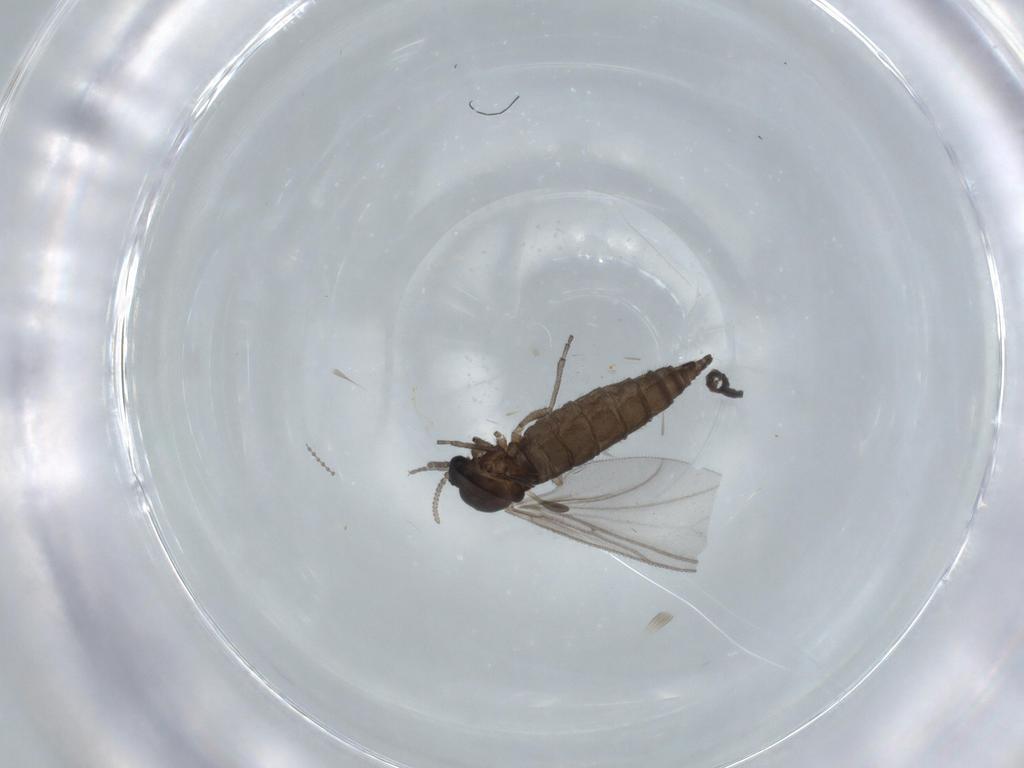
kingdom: Animalia
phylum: Arthropoda
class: Insecta
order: Diptera
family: Sciaridae
